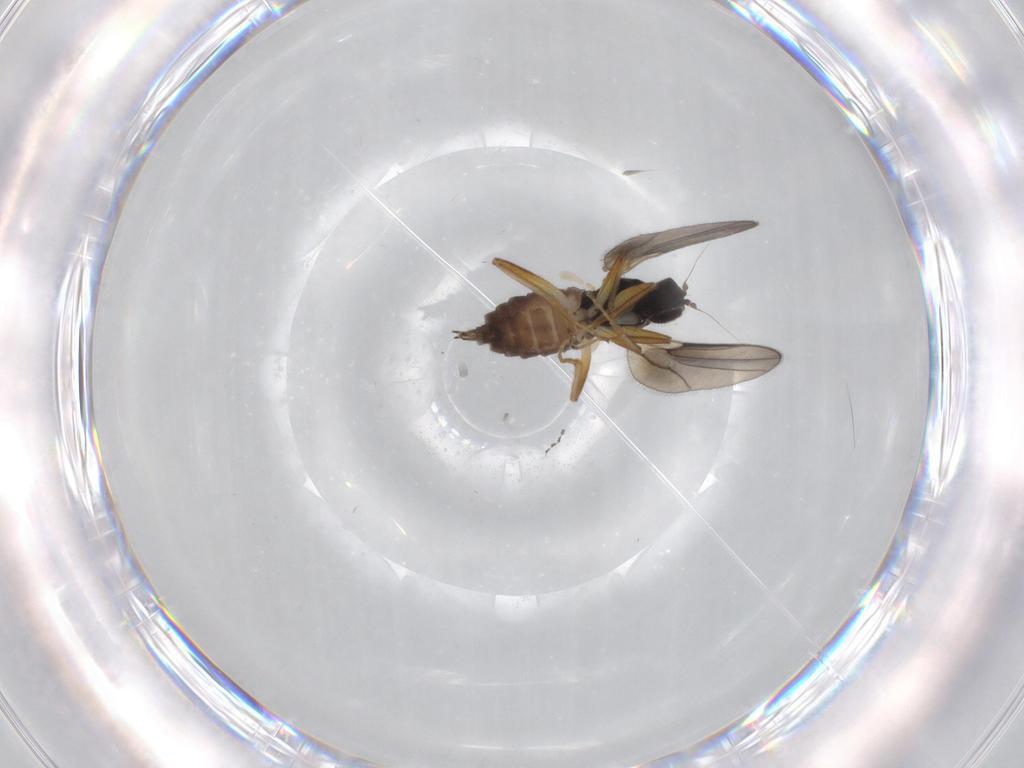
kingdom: Animalia
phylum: Arthropoda
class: Insecta
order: Diptera
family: Hybotidae
